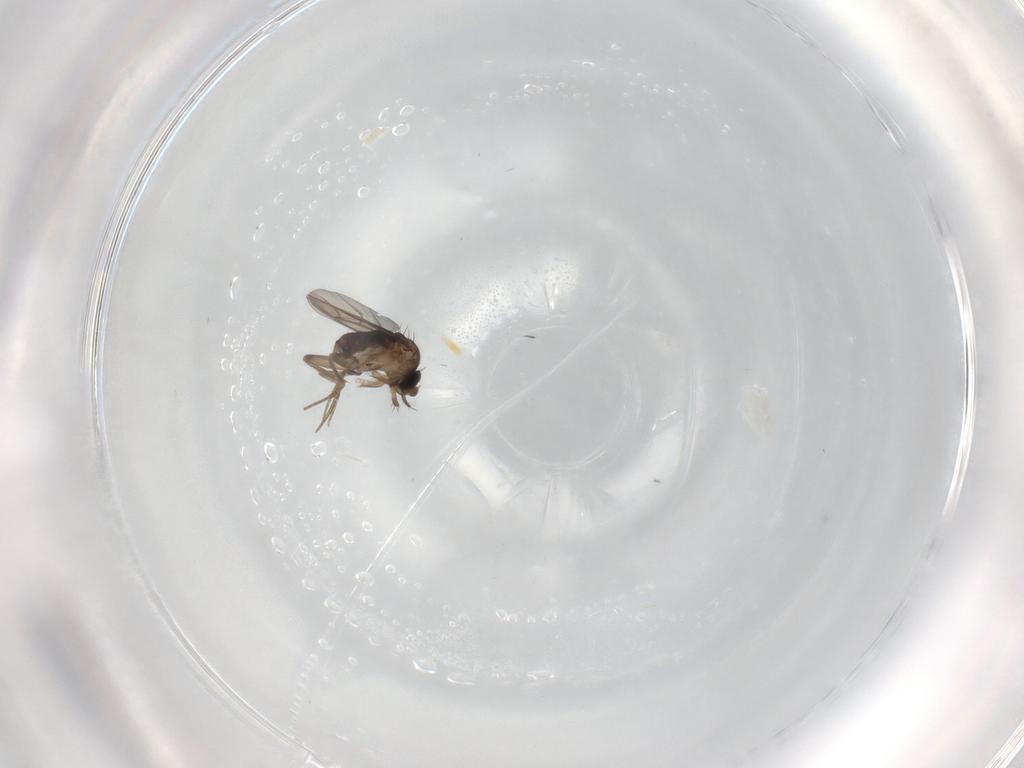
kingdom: Animalia
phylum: Arthropoda
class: Insecta
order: Diptera
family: Phoridae
